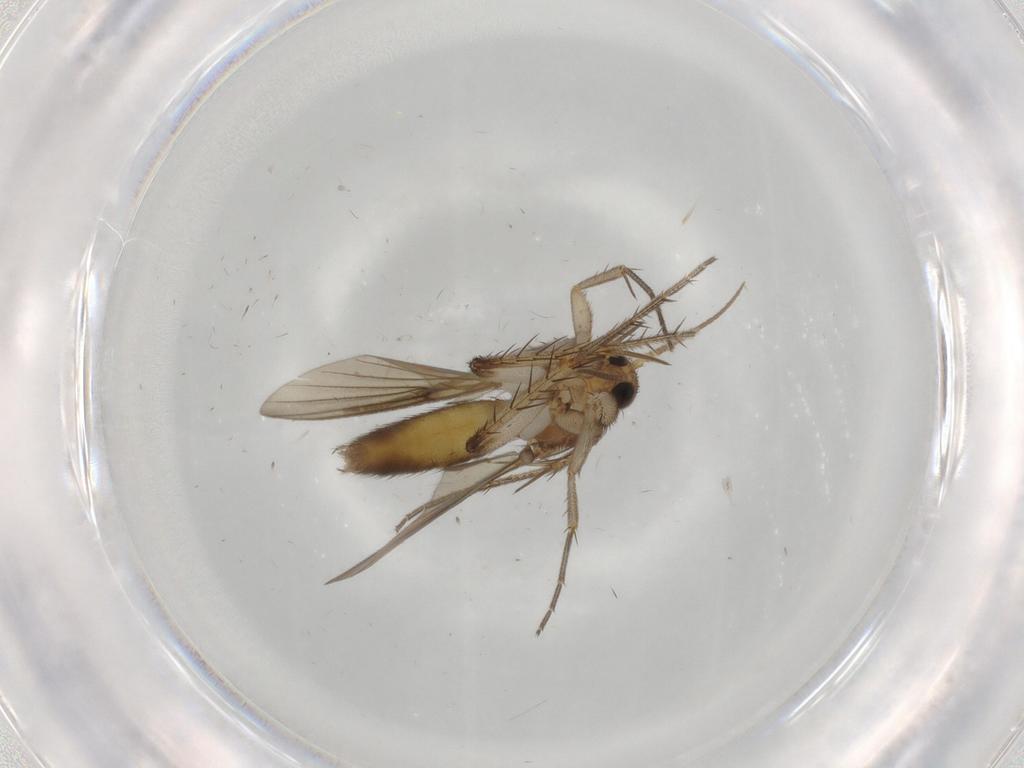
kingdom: Animalia
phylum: Arthropoda
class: Insecta
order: Diptera
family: Mycetophilidae
